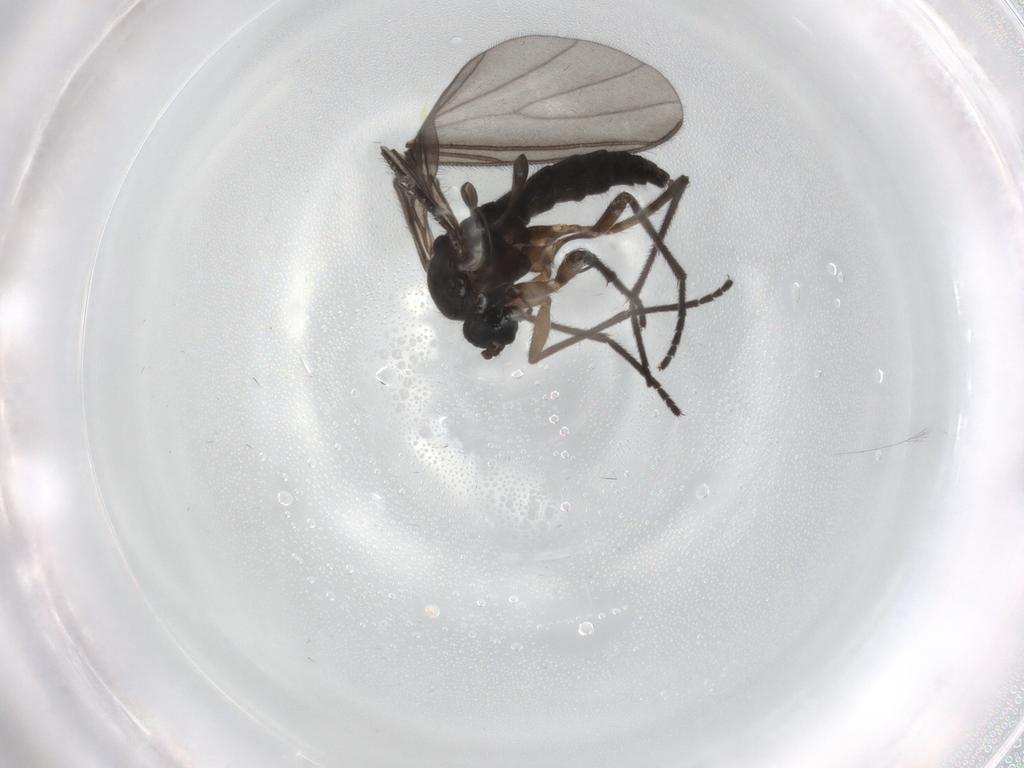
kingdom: Animalia
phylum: Arthropoda
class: Insecta
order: Diptera
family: Sciaridae
